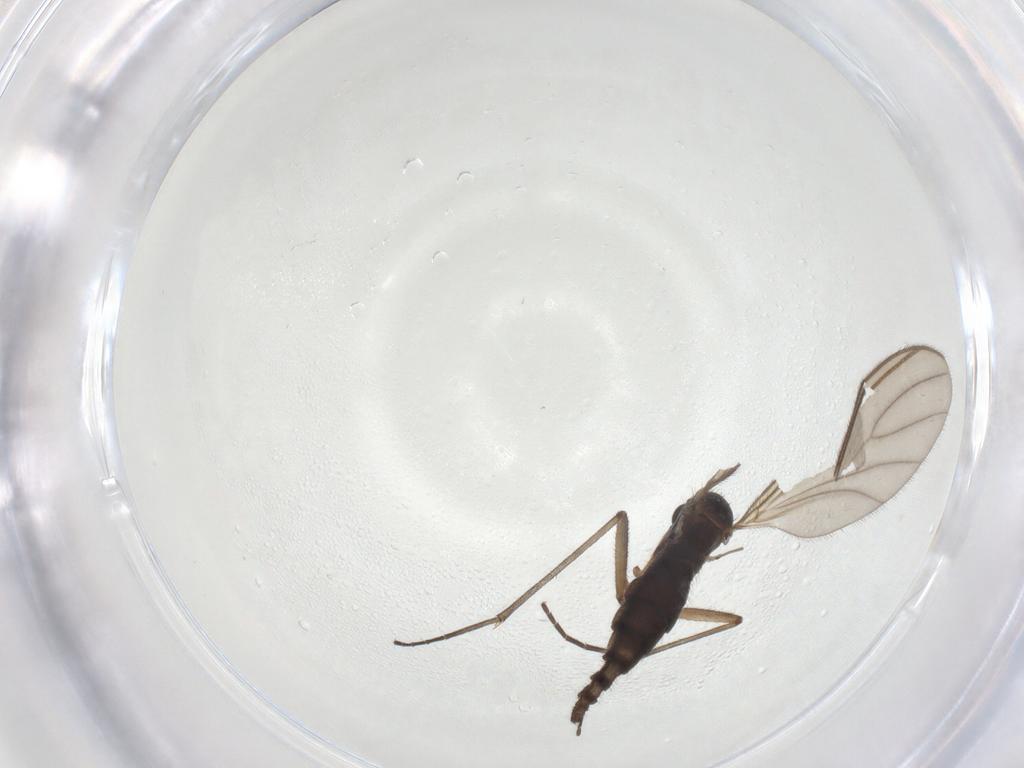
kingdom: Animalia
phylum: Arthropoda
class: Insecta
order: Diptera
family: Sciaridae
